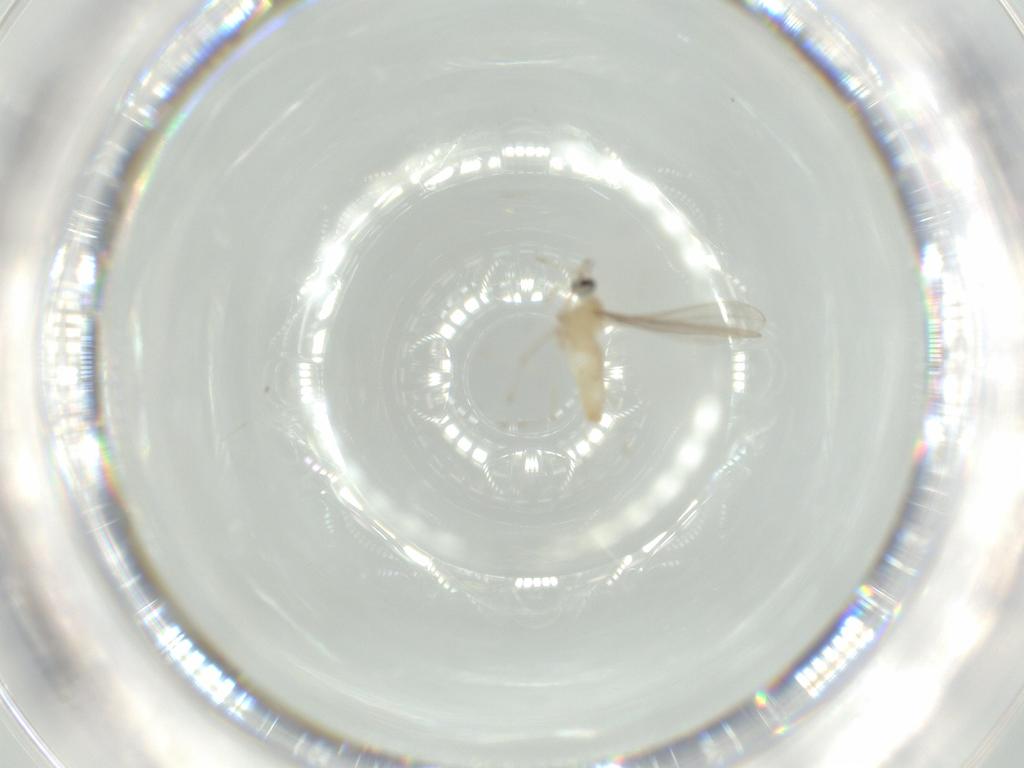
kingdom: Animalia
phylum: Arthropoda
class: Insecta
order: Diptera
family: Cecidomyiidae
